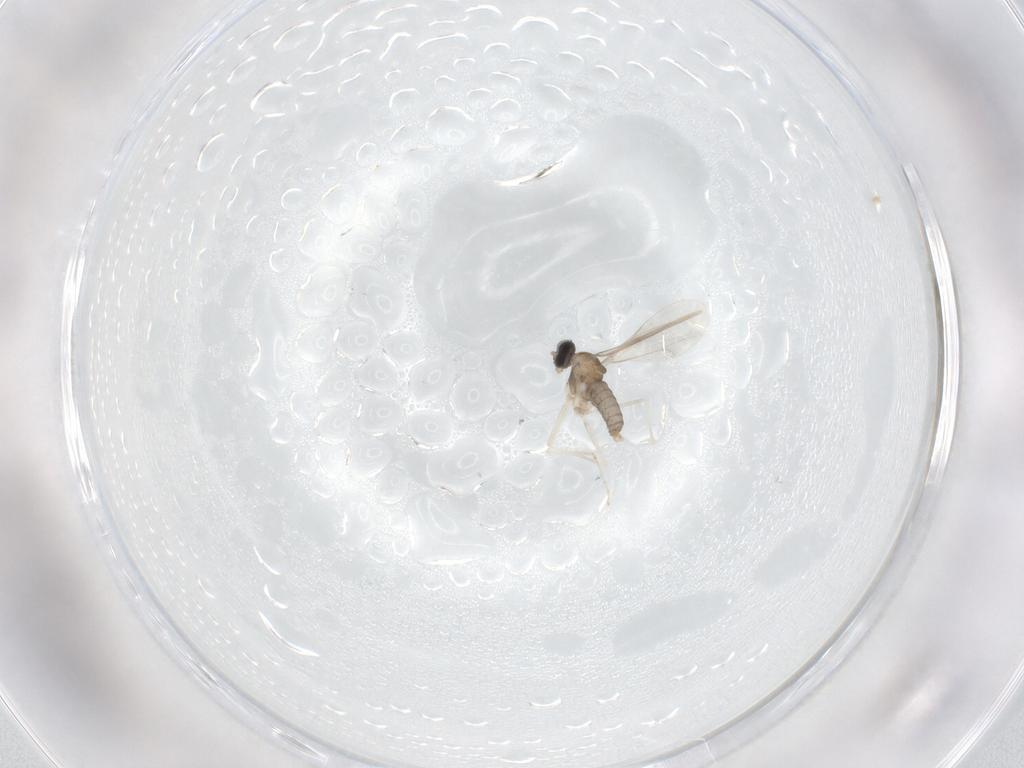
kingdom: Animalia
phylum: Arthropoda
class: Insecta
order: Diptera
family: Cecidomyiidae
